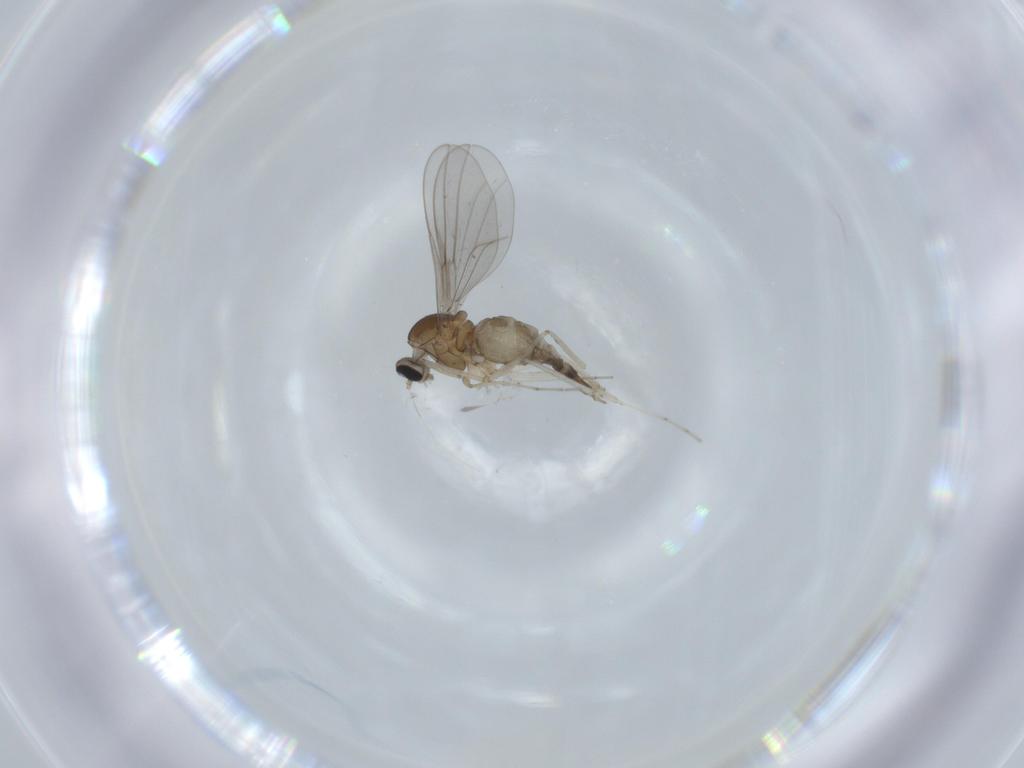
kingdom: Animalia
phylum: Arthropoda
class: Insecta
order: Diptera
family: Cecidomyiidae
